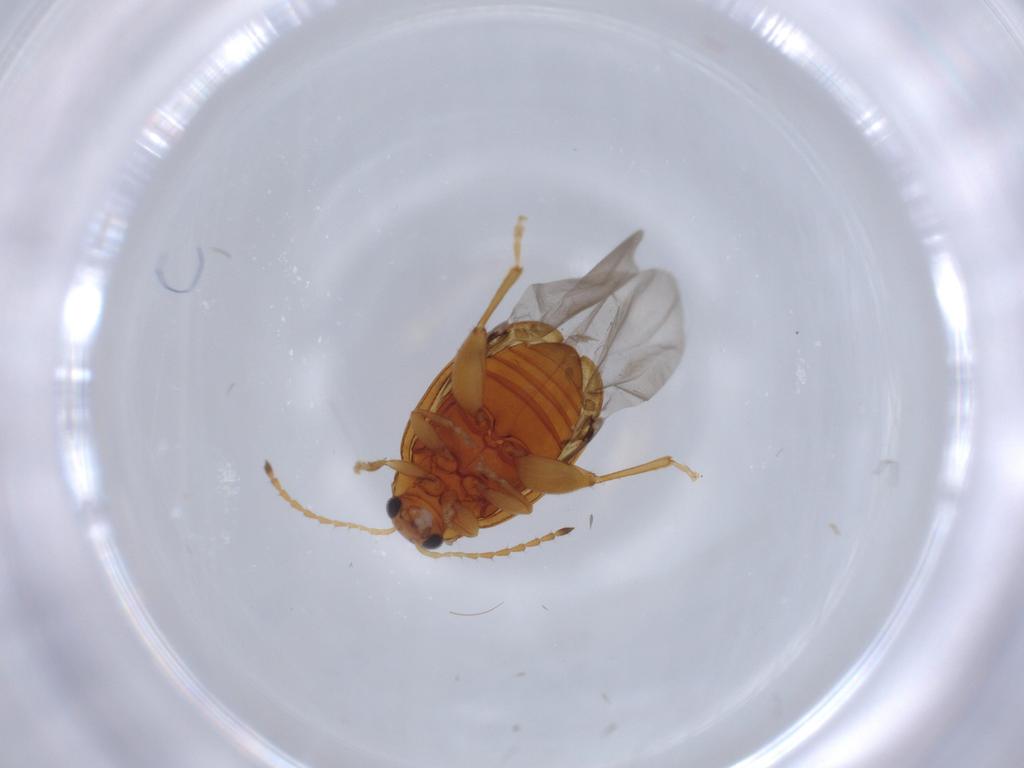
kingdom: Animalia
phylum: Arthropoda
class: Insecta
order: Coleoptera
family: Chrysomelidae
